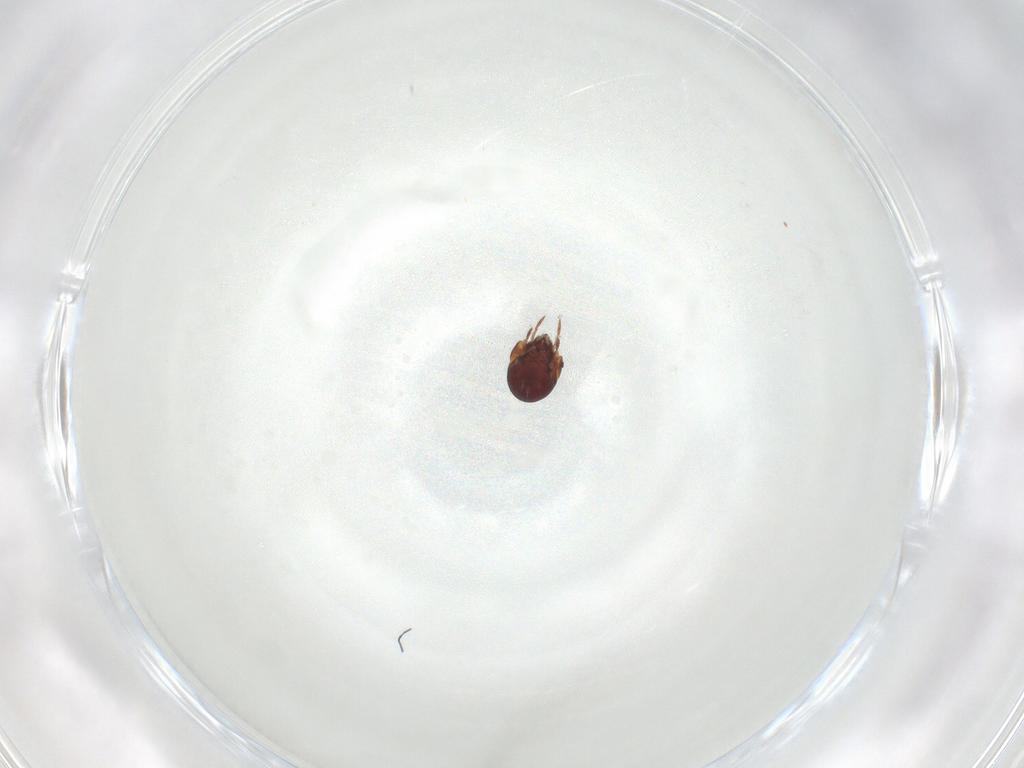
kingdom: Animalia
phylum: Arthropoda
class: Arachnida
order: Sarcoptiformes
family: Humerobatidae
